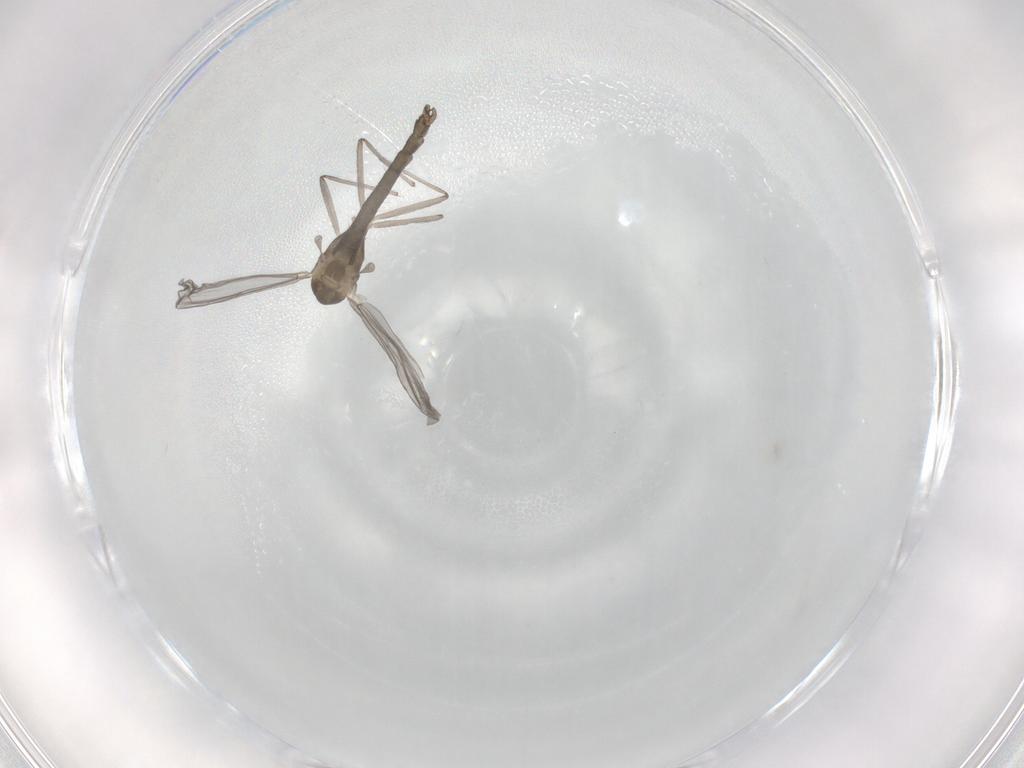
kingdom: Animalia
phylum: Arthropoda
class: Insecta
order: Diptera
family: Chironomidae
